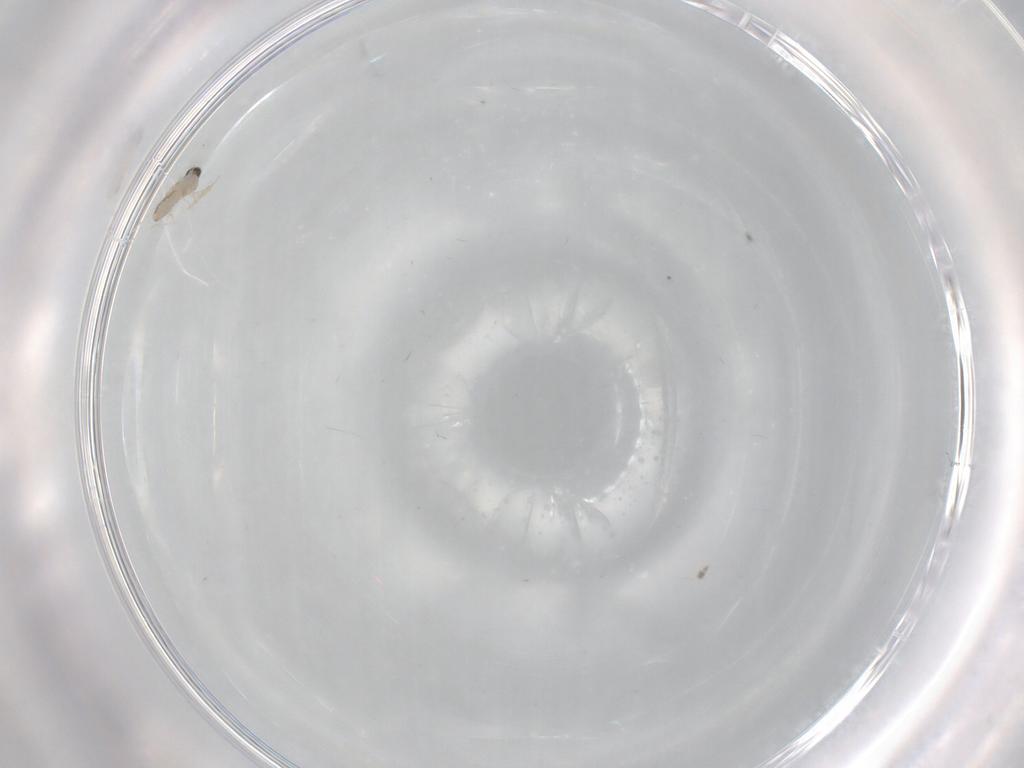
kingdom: Animalia
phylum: Arthropoda
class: Insecta
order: Diptera
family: Cecidomyiidae
